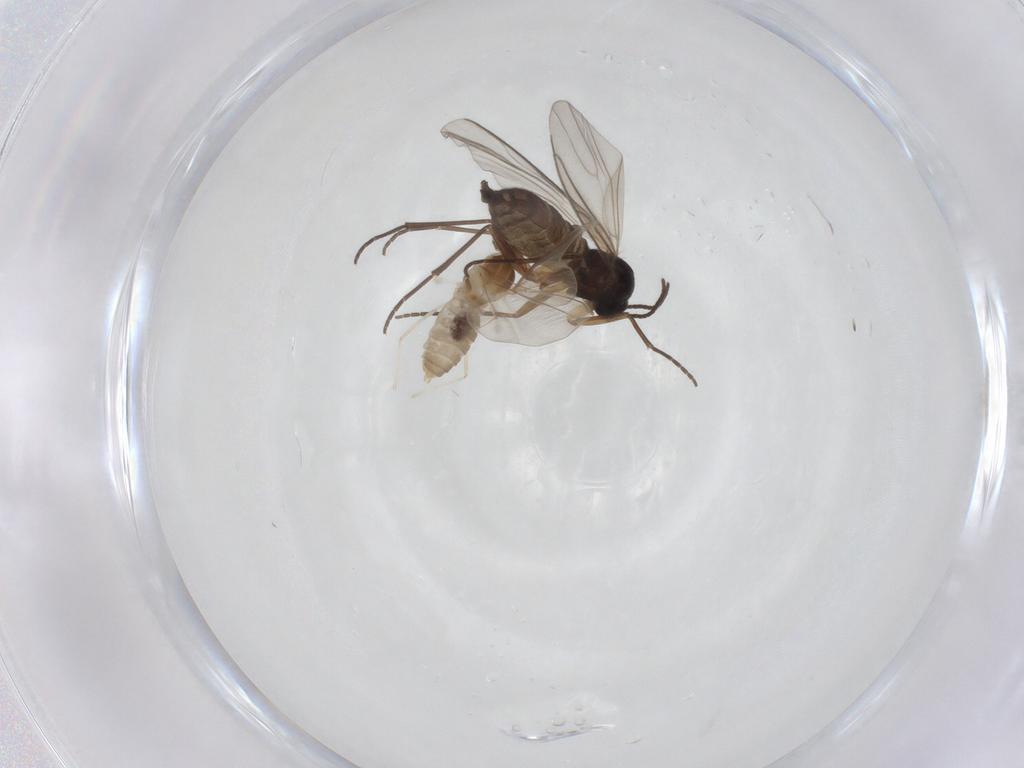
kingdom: Animalia
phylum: Arthropoda
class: Insecta
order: Diptera
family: Sciaridae
